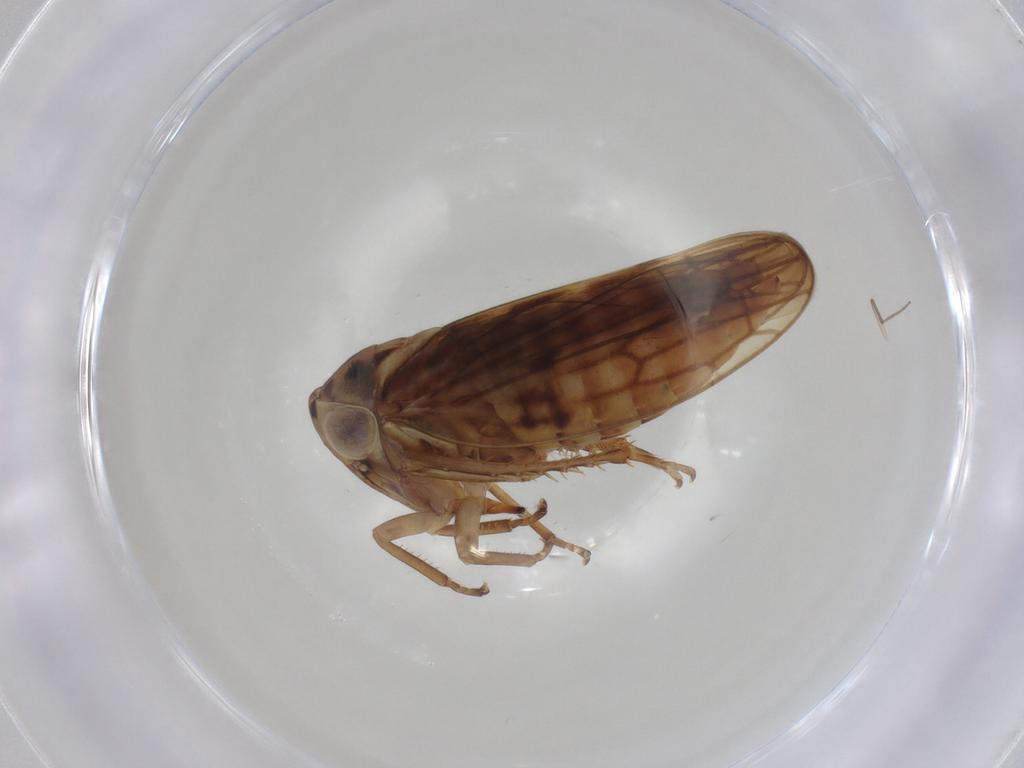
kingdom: Animalia
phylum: Arthropoda
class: Insecta
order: Hemiptera
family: Cicadellidae
